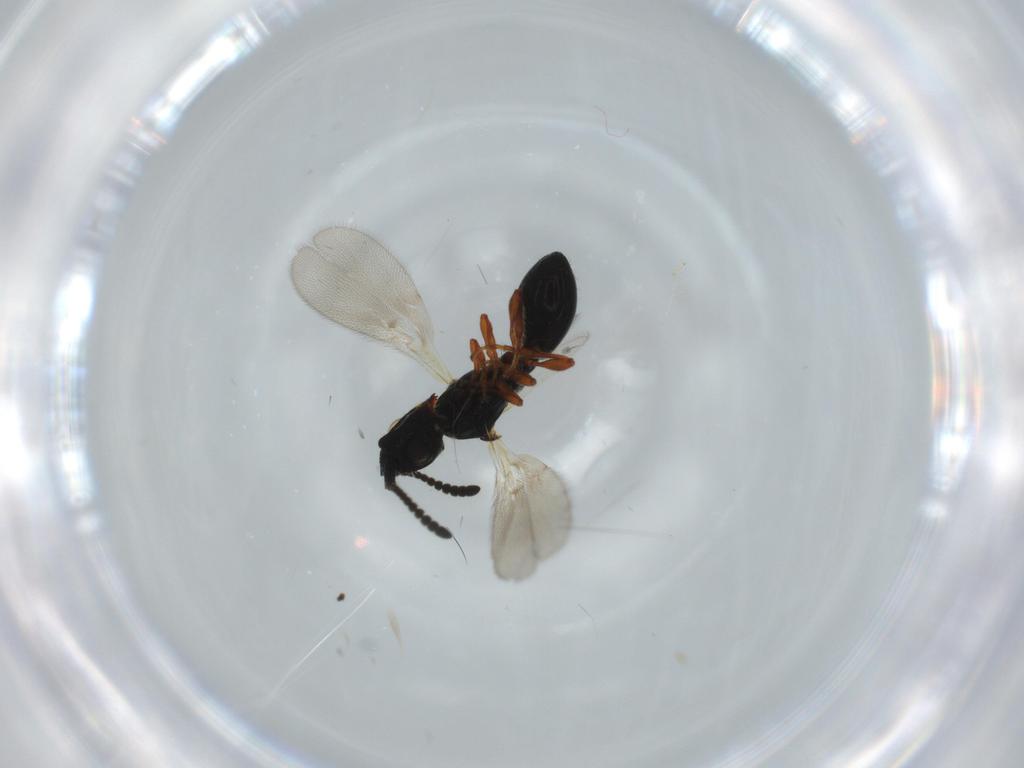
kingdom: Animalia
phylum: Arthropoda
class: Insecta
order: Hymenoptera
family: Diapriidae
